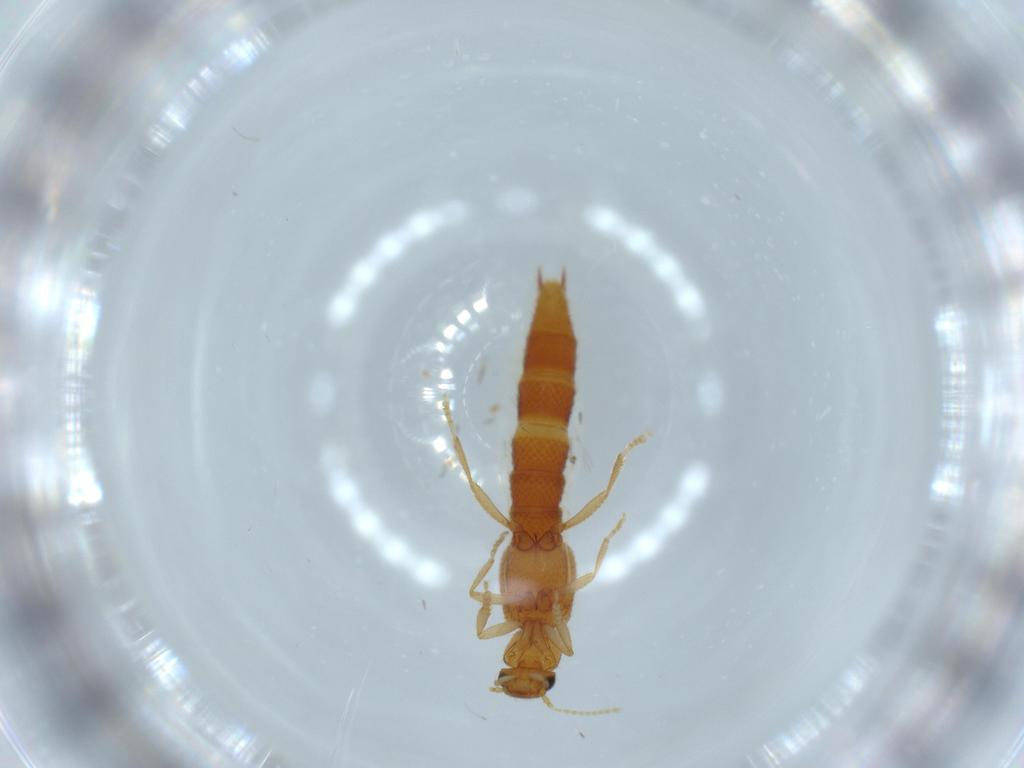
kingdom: Animalia
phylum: Arthropoda
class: Insecta
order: Coleoptera
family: Staphylinidae
